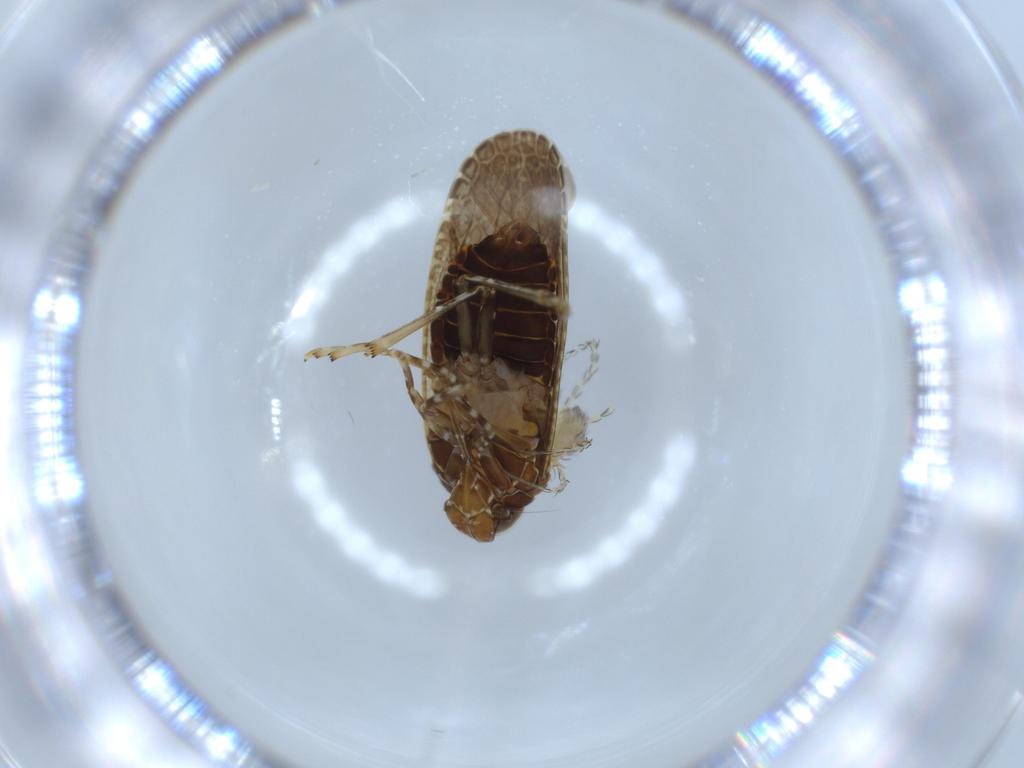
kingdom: Animalia
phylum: Arthropoda
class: Arachnida
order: Trombidiformes
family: Erythraeidae
